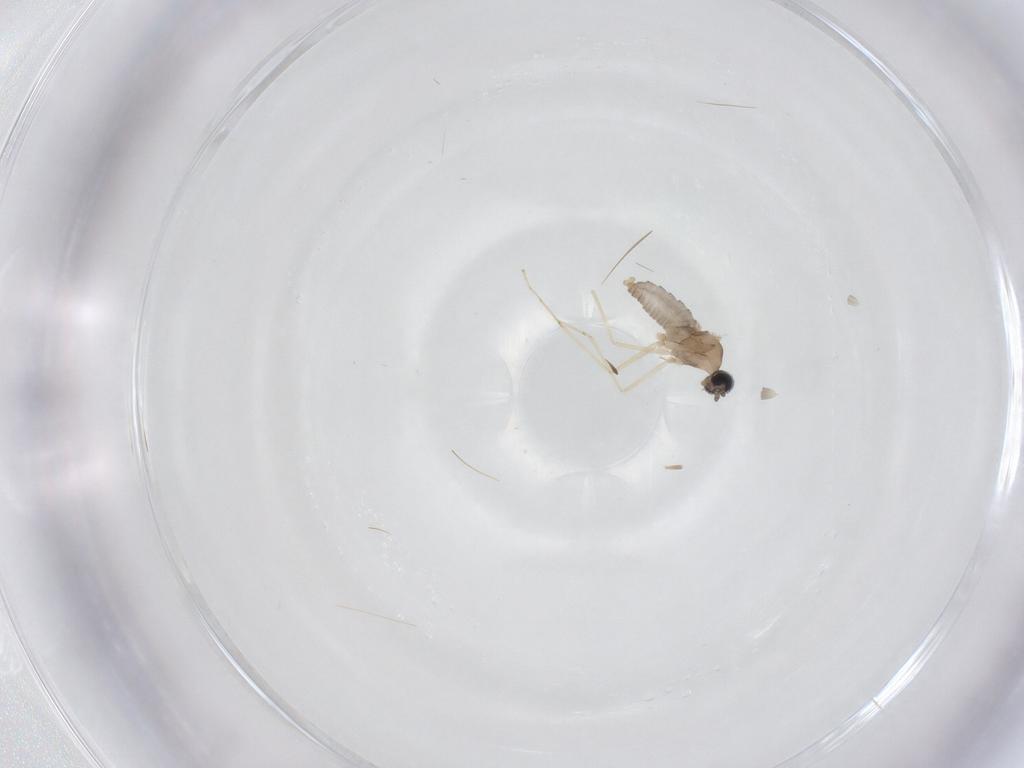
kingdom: Animalia
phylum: Arthropoda
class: Insecta
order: Diptera
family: Cecidomyiidae
